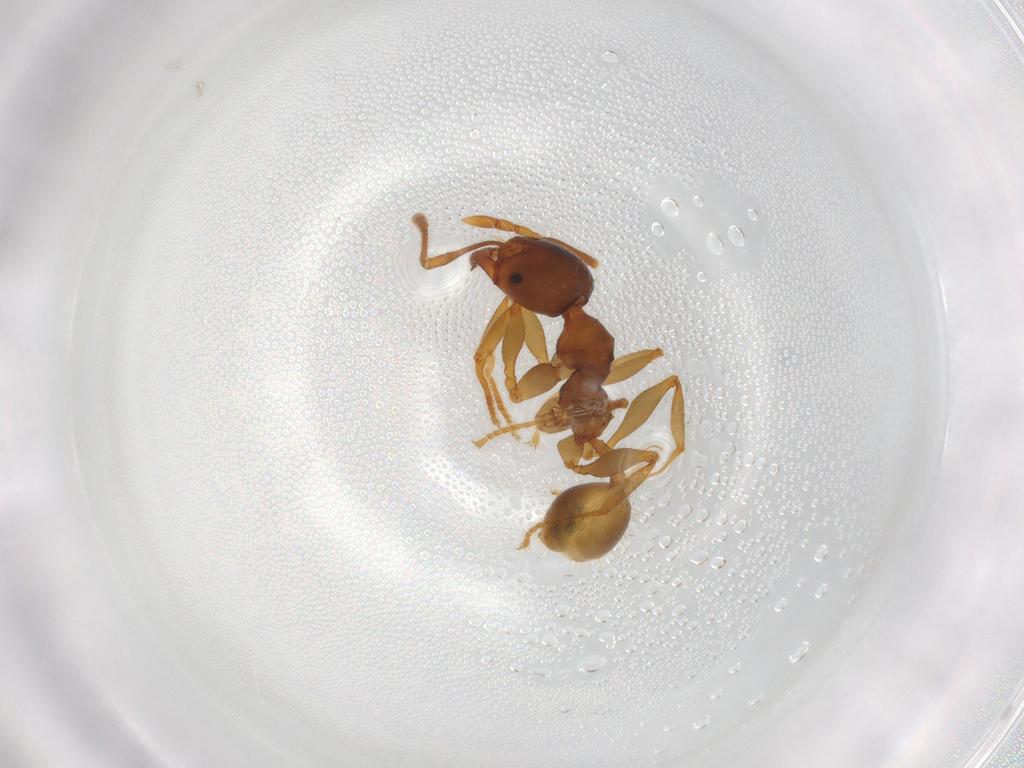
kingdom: Animalia
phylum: Arthropoda
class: Insecta
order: Hymenoptera
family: Formicidae
